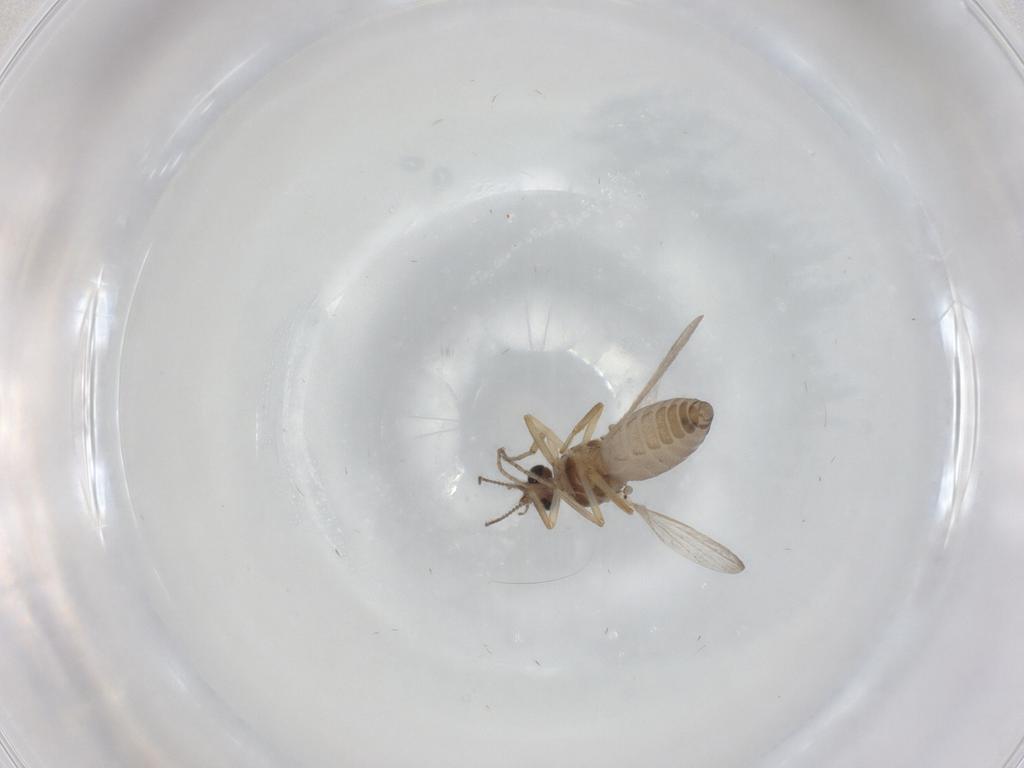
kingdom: Animalia
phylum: Arthropoda
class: Insecta
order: Diptera
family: Ceratopogonidae
